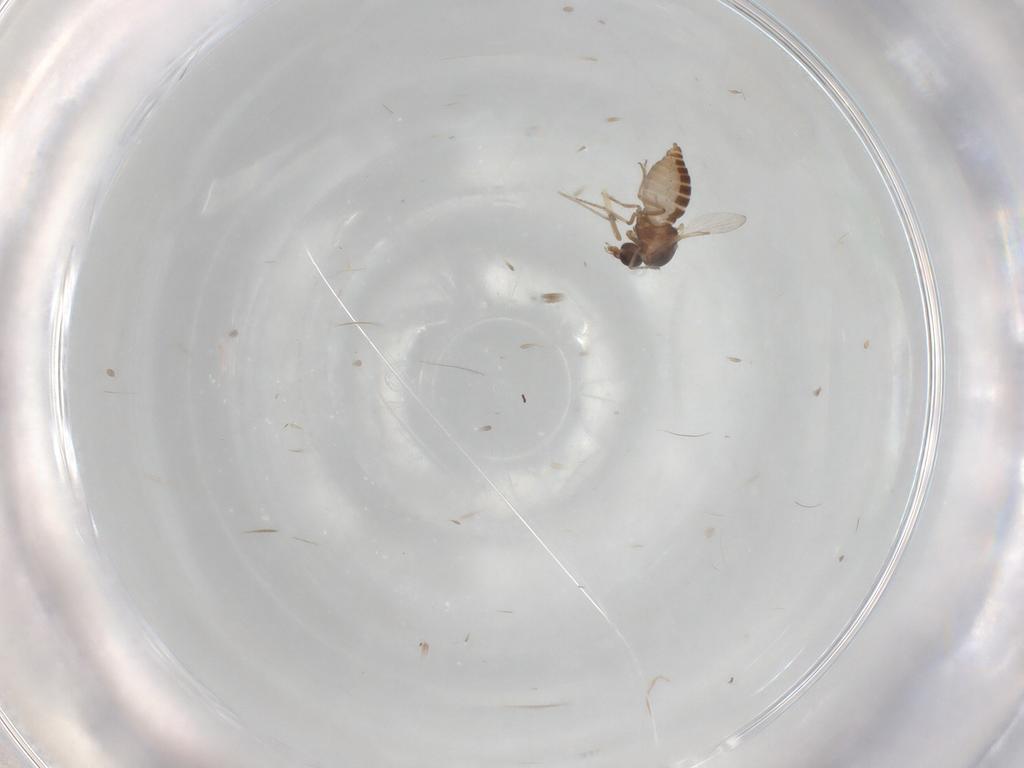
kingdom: Animalia
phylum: Arthropoda
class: Insecta
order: Diptera
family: Chironomidae
